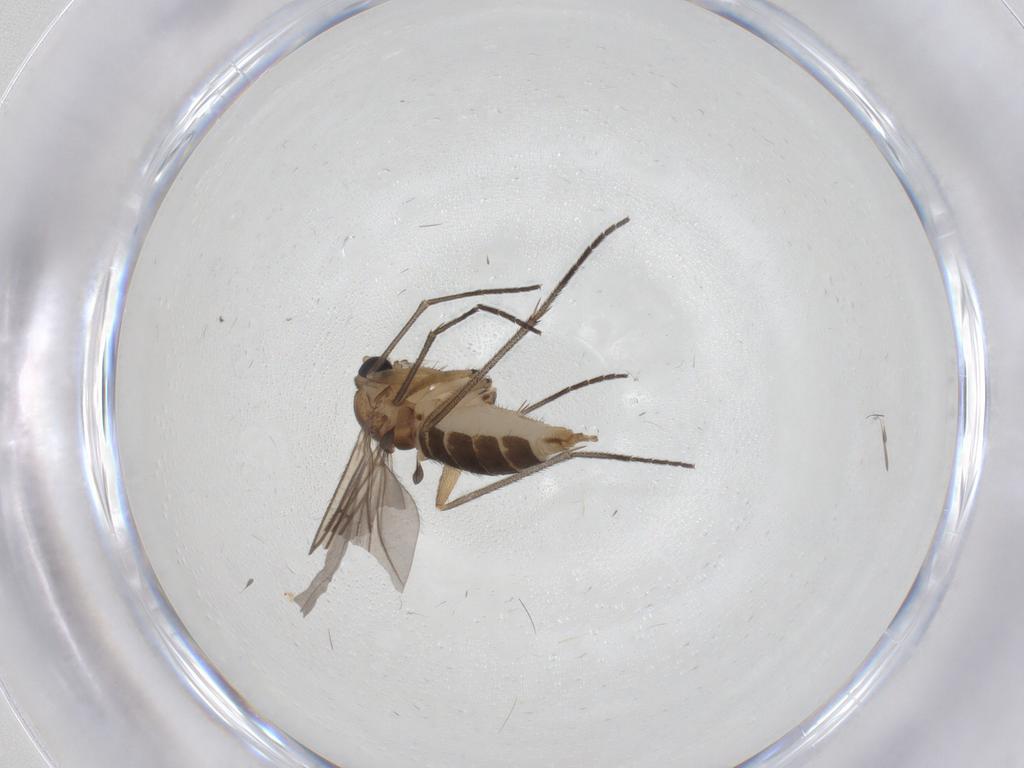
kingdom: Animalia
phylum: Arthropoda
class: Insecta
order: Diptera
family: Sciaridae
